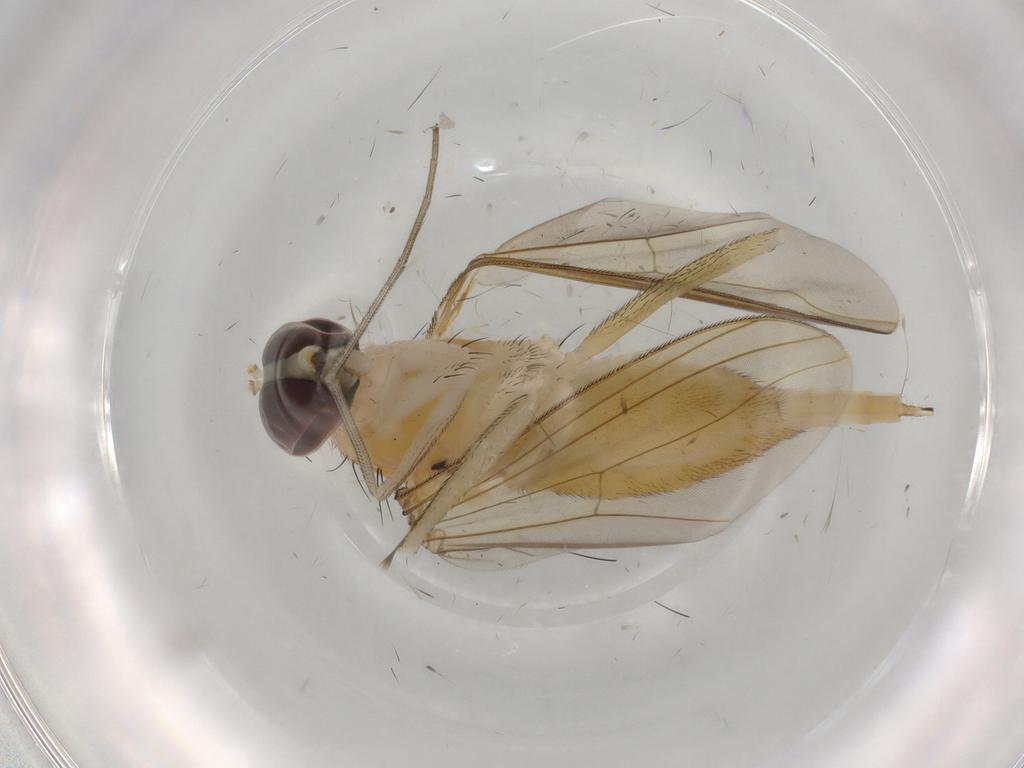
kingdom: Animalia
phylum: Arthropoda
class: Insecta
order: Diptera
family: Dolichopodidae
